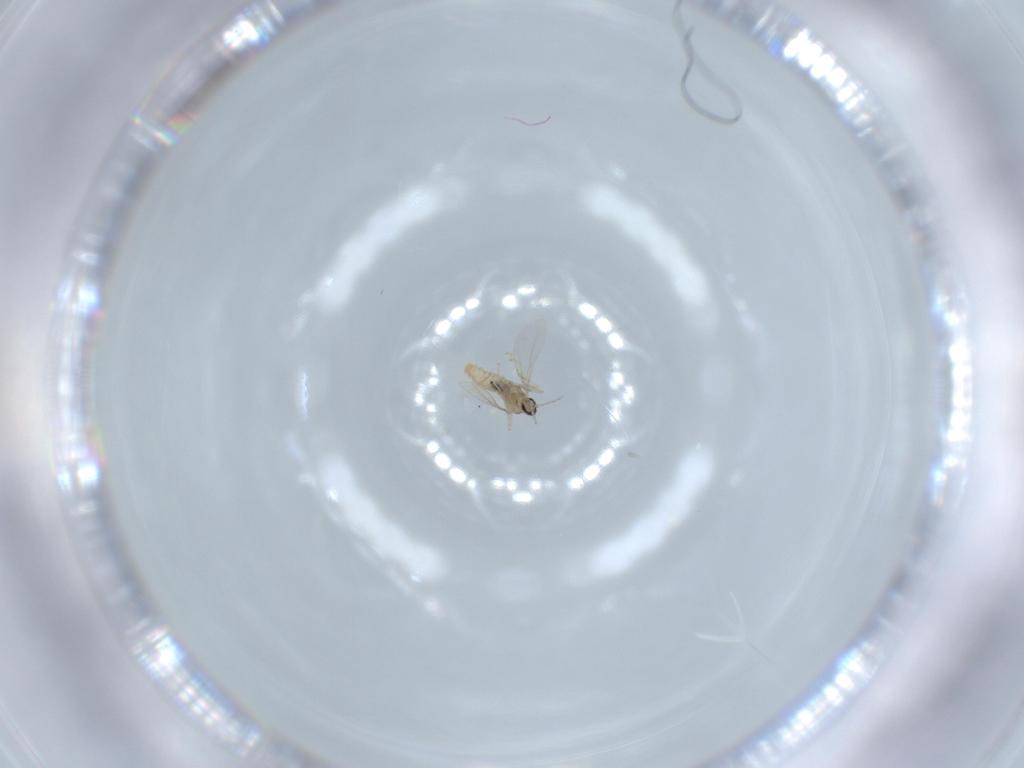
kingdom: Animalia
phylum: Arthropoda
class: Insecta
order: Diptera
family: Cecidomyiidae
